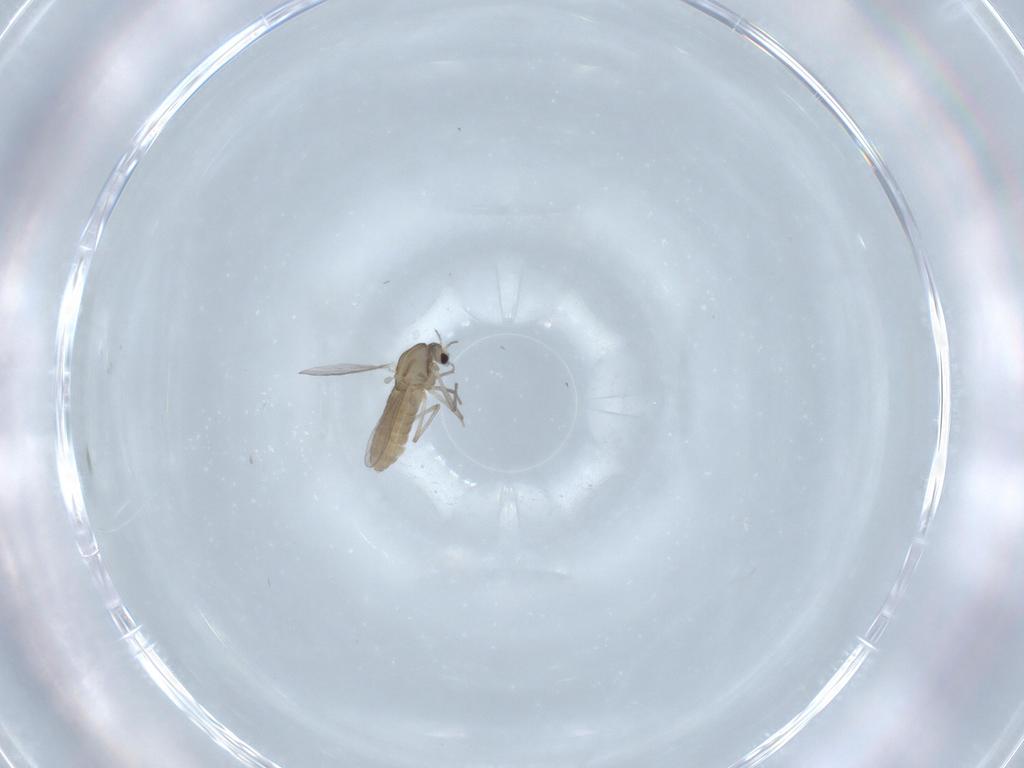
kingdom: Animalia
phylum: Arthropoda
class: Insecta
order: Diptera
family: Chironomidae
